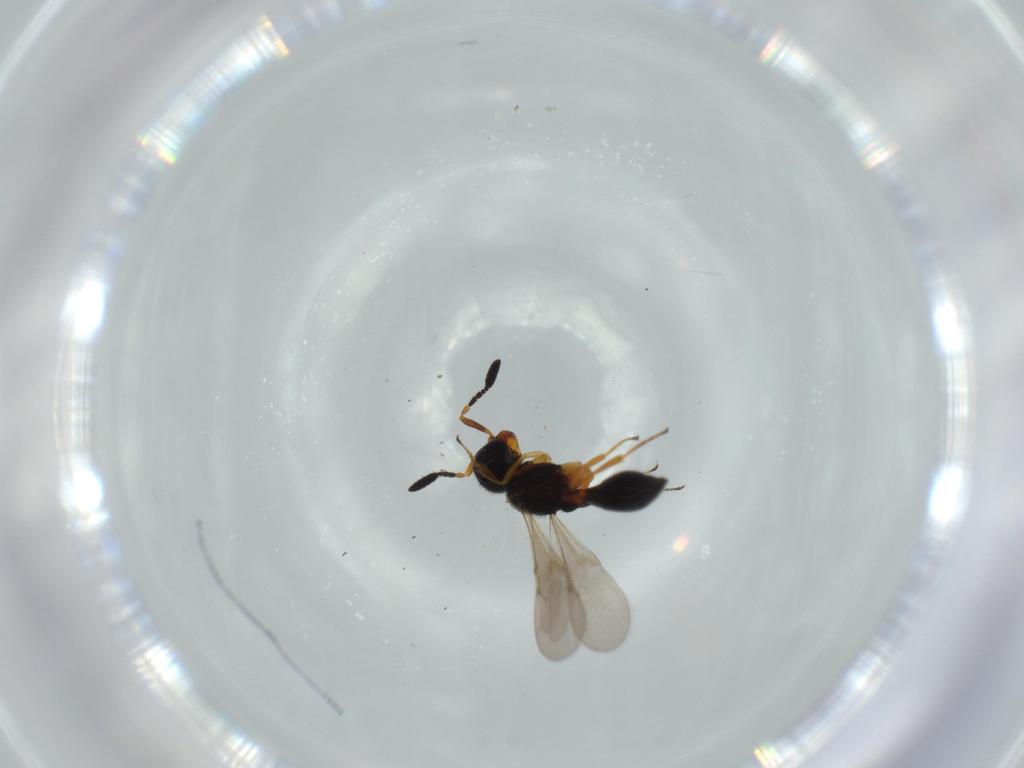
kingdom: Animalia
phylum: Arthropoda
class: Insecta
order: Hymenoptera
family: Scelionidae
